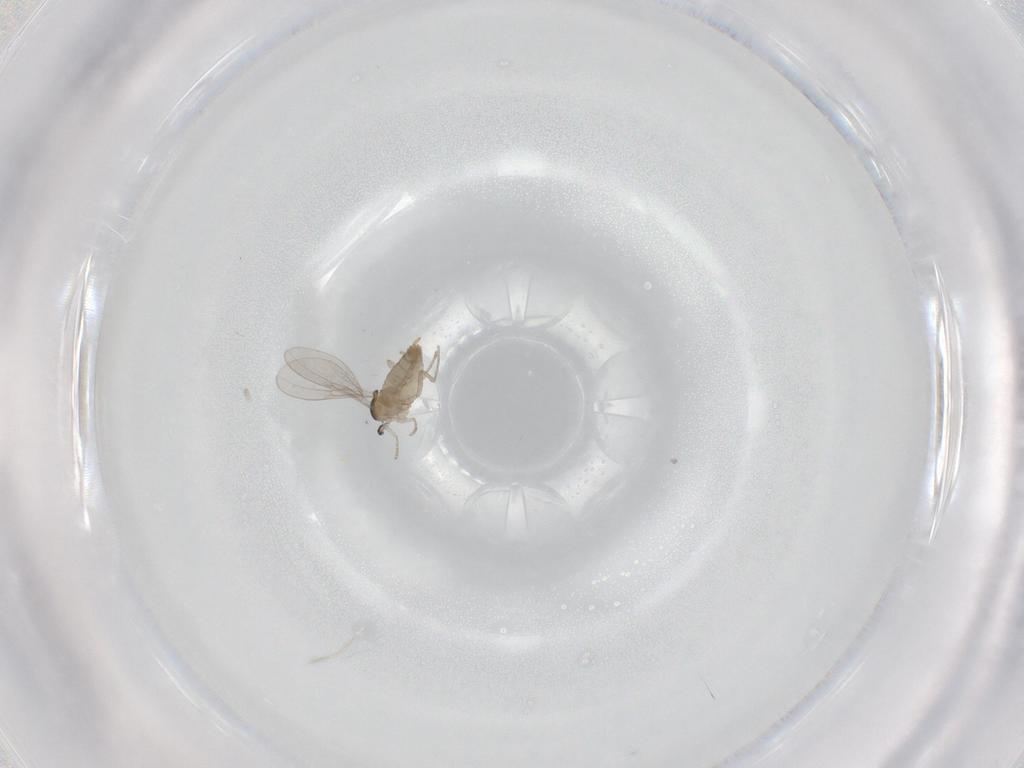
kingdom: Animalia
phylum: Arthropoda
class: Insecta
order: Diptera
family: Cecidomyiidae
